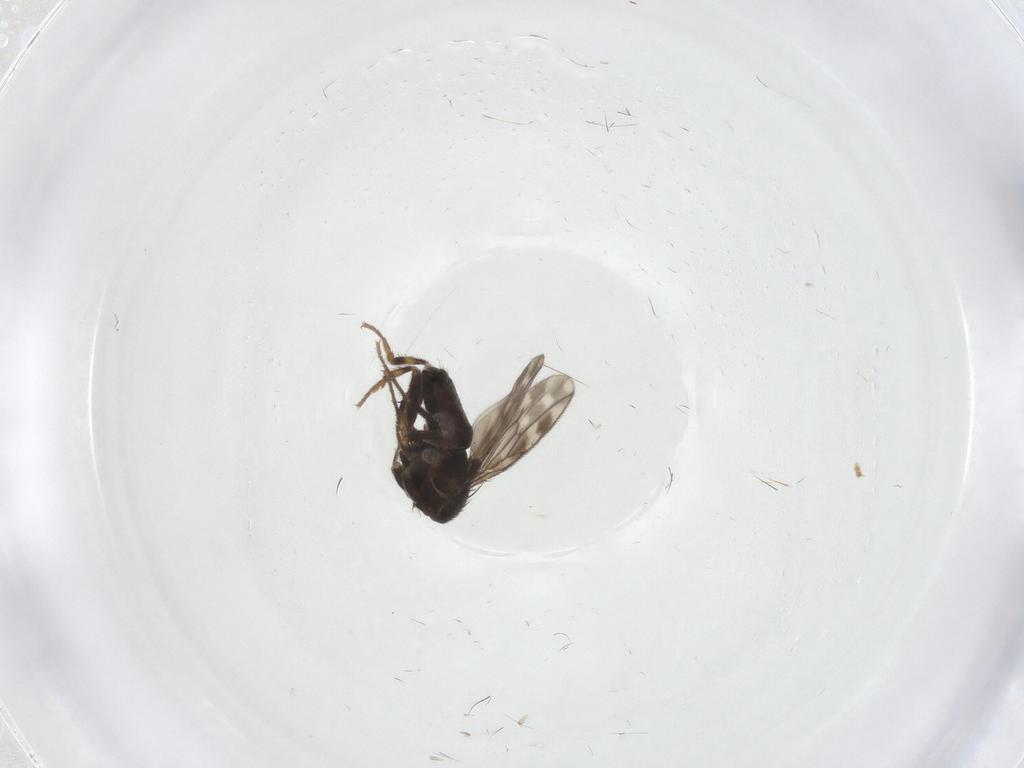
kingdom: Animalia
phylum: Arthropoda
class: Insecta
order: Diptera
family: Sphaeroceridae
